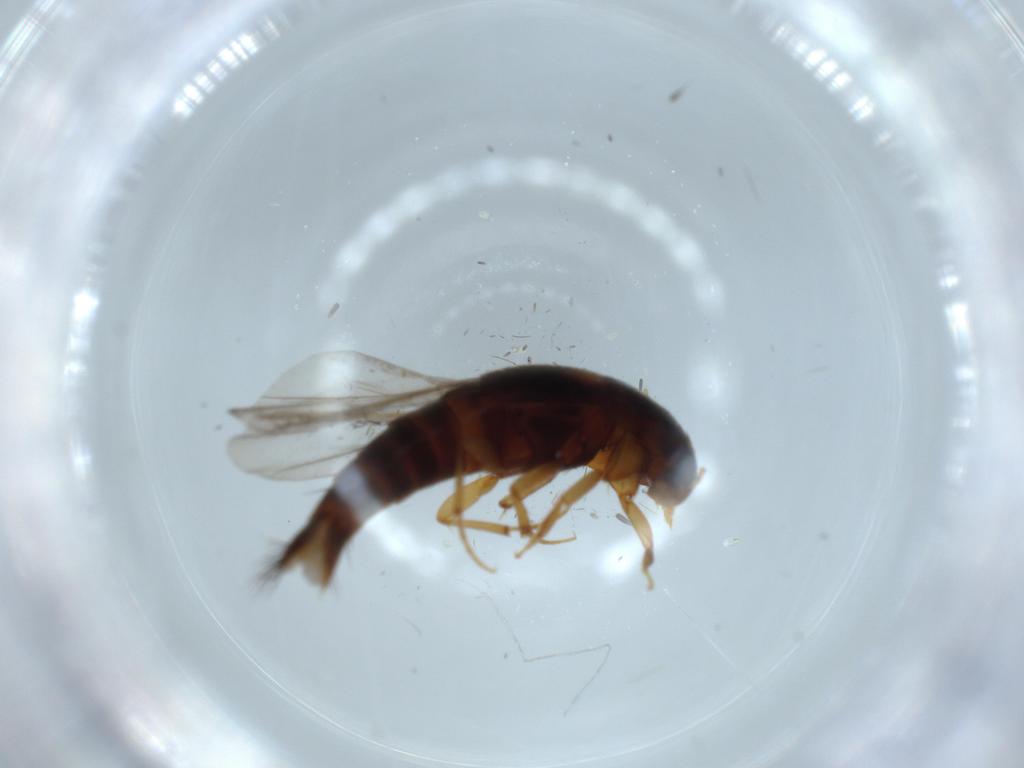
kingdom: Animalia
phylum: Arthropoda
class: Insecta
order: Coleoptera
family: Staphylinidae
